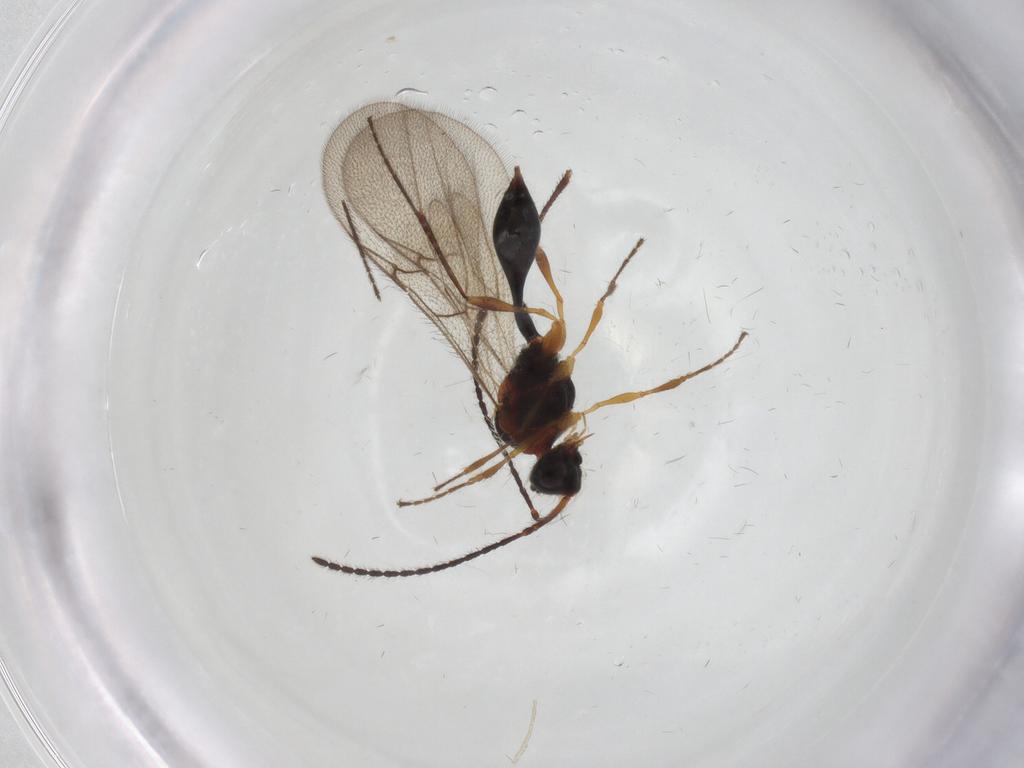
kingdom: Animalia
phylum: Arthropoda
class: Insecta
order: Hymenoptera
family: Diapriidae
